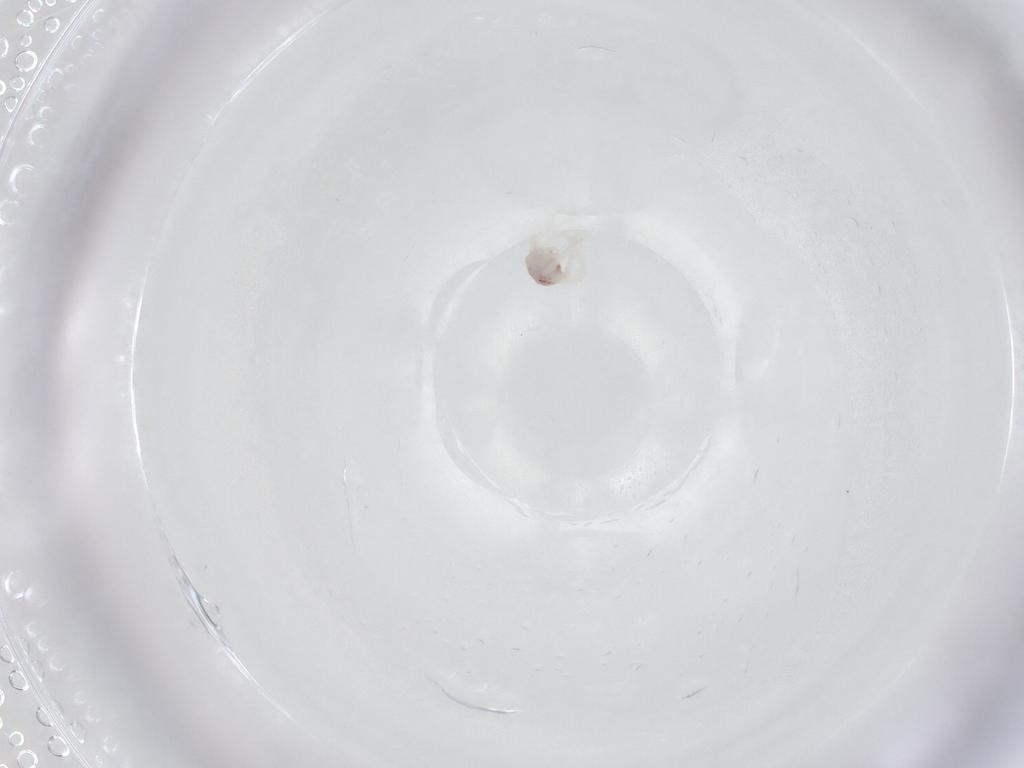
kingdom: Animalia
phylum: Arthropoda
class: Arachnida
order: Trombidiformes
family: Anystidae
